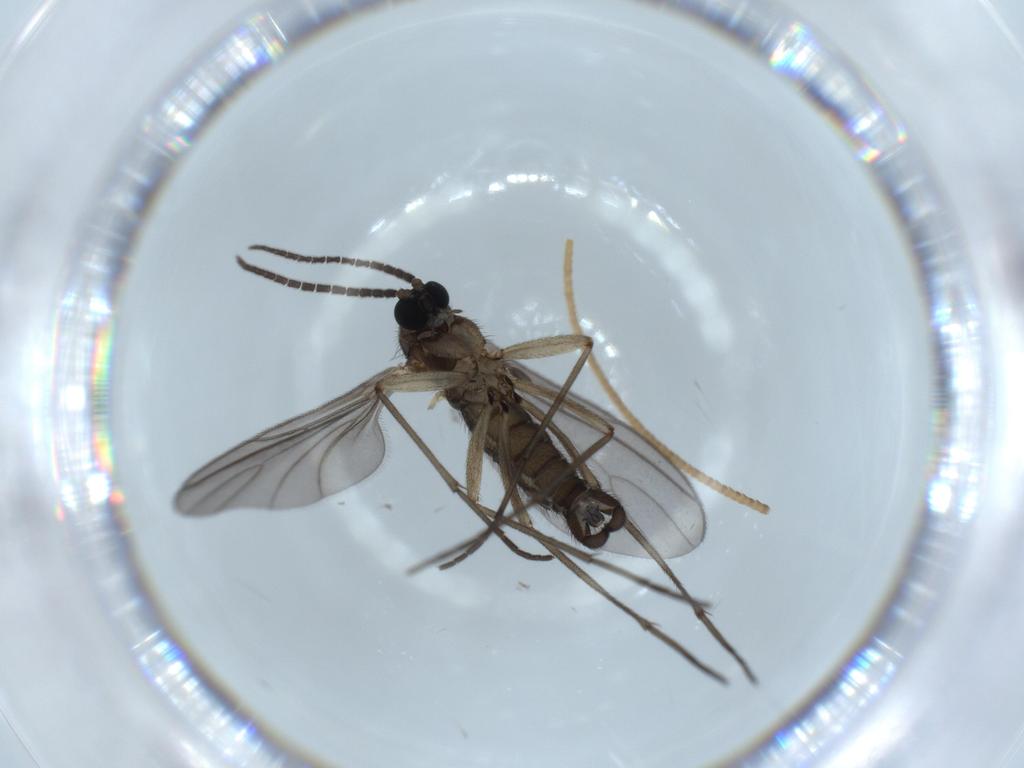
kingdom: Animalia
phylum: Arthropoda
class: Insecta
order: Diptera
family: Sciaridae
